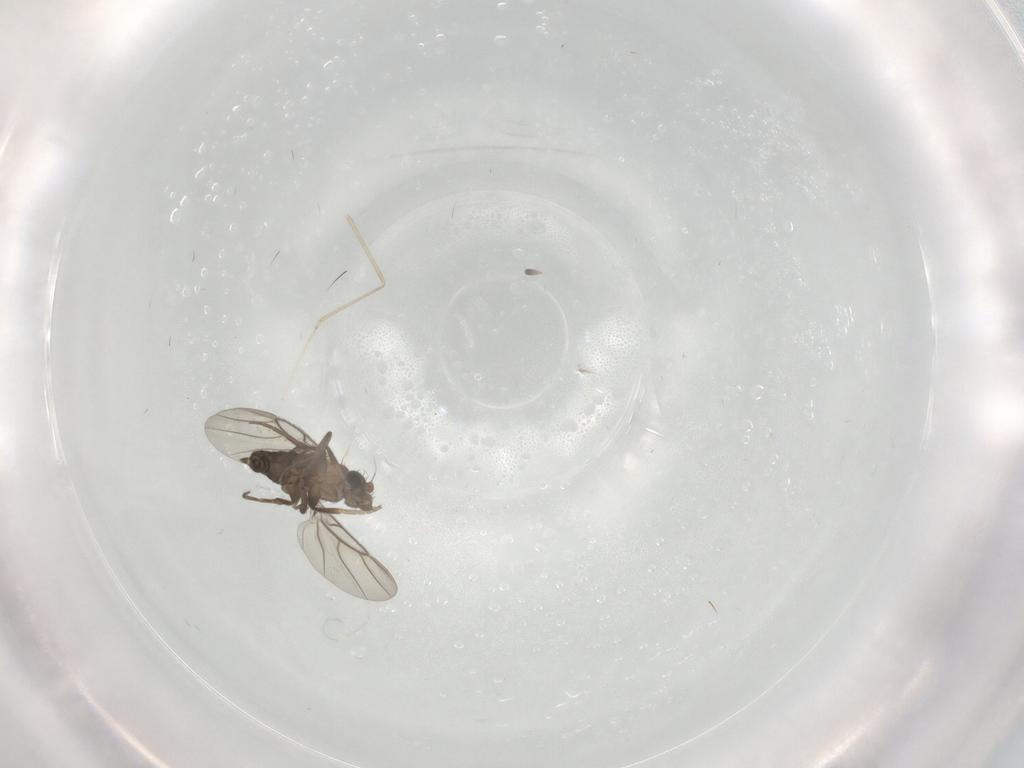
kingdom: Animalia
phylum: Arthropoda
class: Insecta
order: Diptera
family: Phoridae
